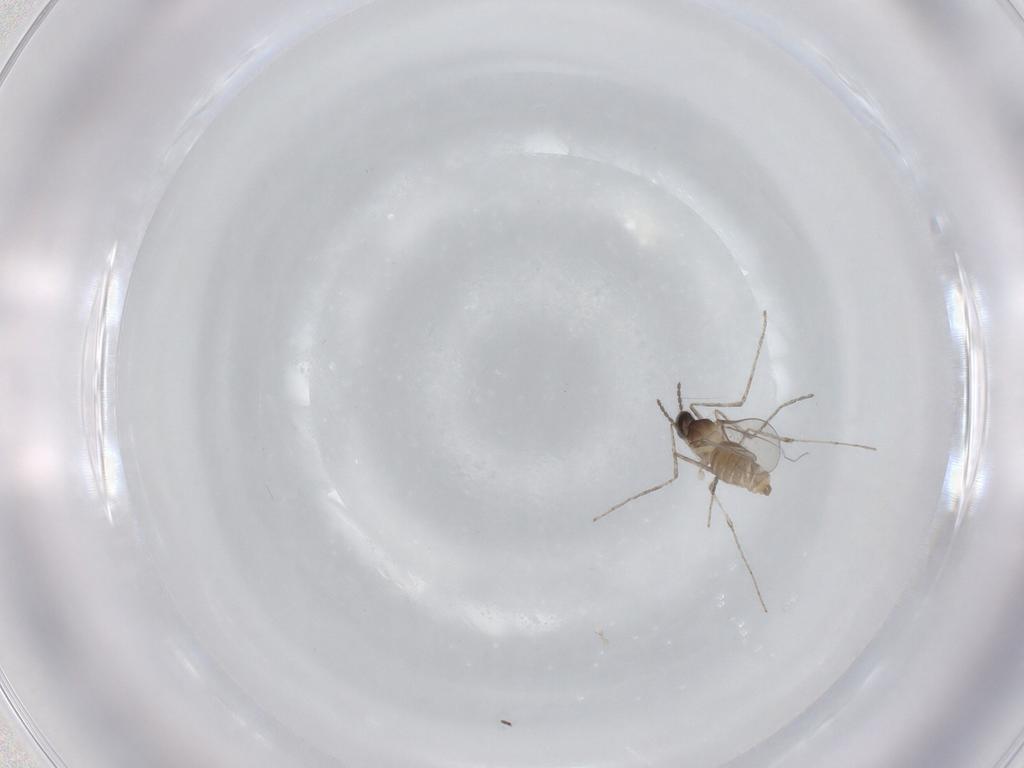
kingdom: Animalia
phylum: Arthropoda
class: Insecta
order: Diptera
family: Cecidomyiidae
